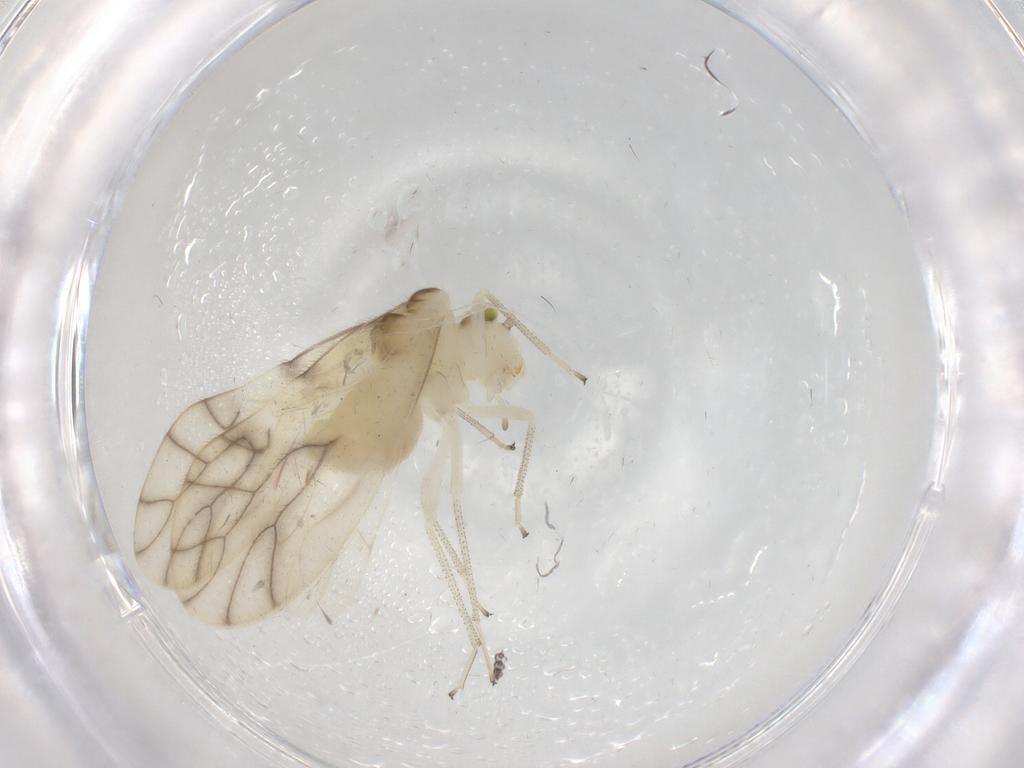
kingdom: Animalia
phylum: Arthropoda
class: Insecta
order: Psocodea
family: Caeciliusidae
